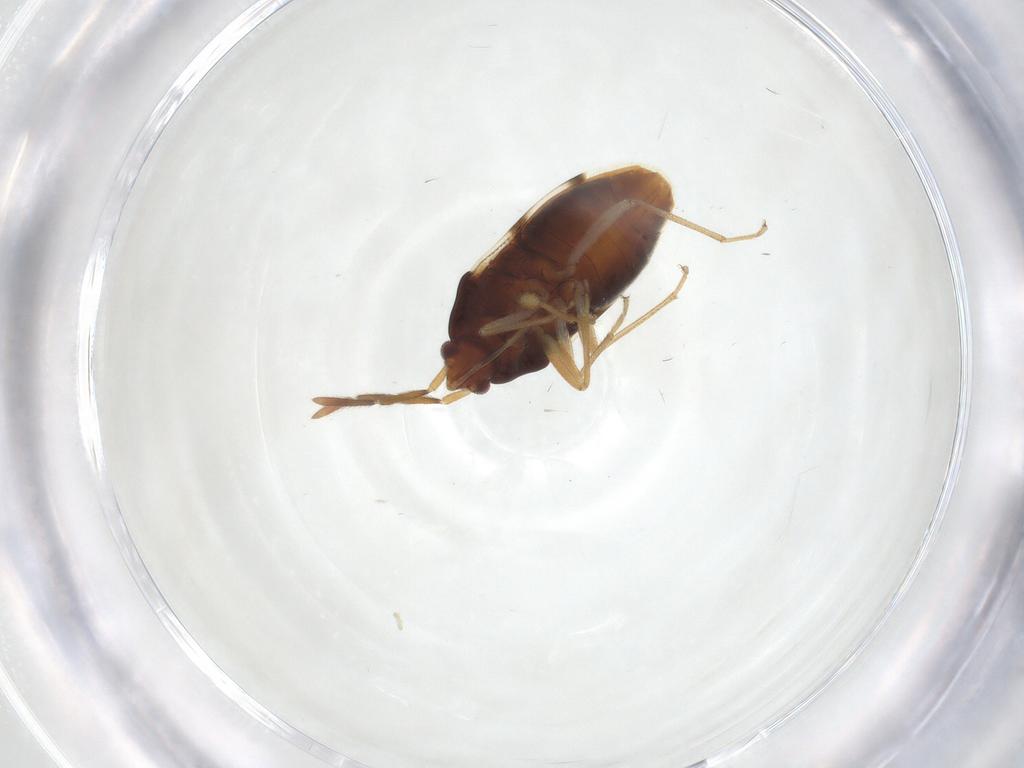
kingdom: Animalia
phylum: Arthropoda
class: Insecta
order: Hemiptera
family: Rhyparochromidae
